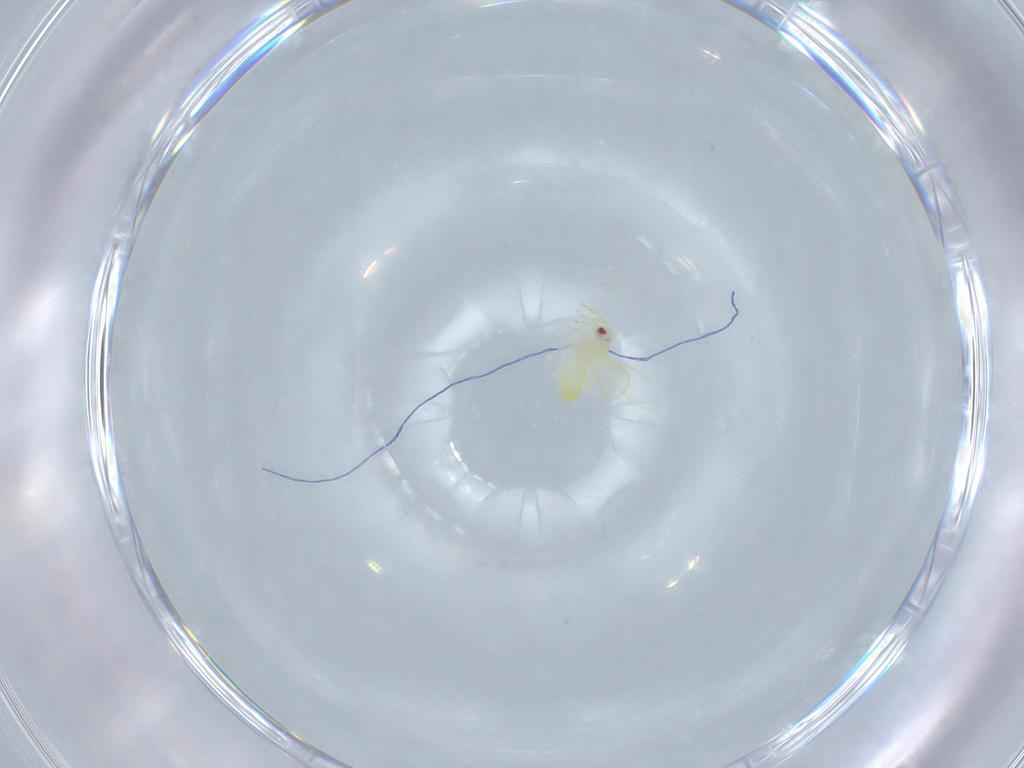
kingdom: Animalia
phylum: Arthropoda
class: Insecta
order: Hemiptera
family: Aleyrodidae
